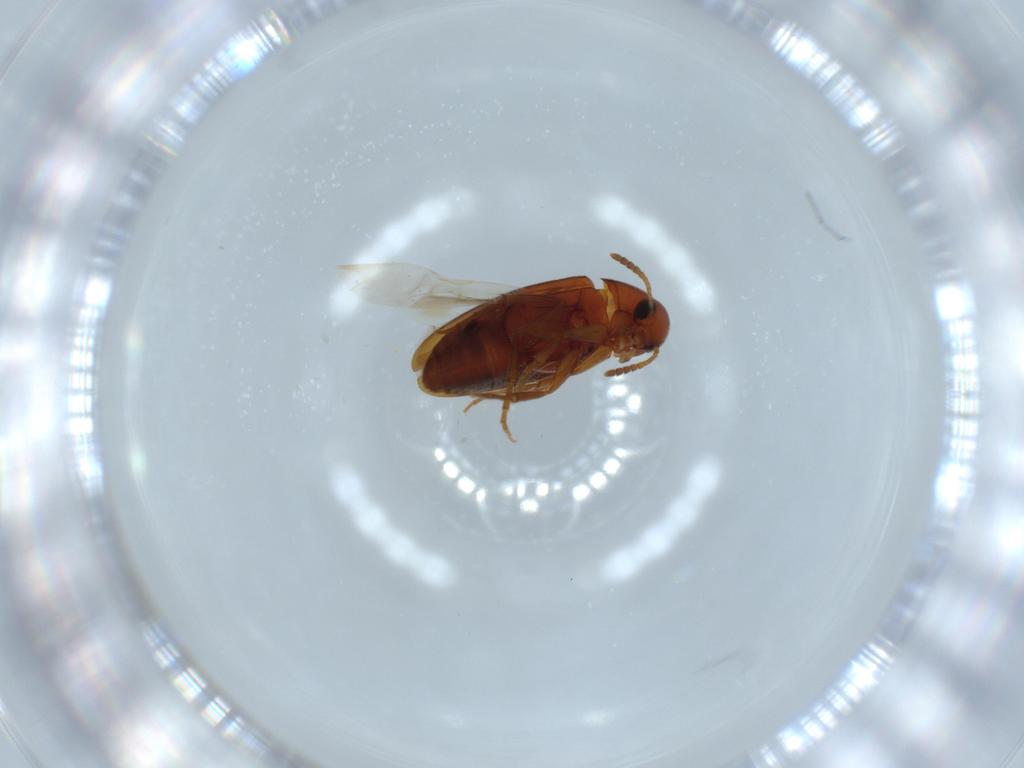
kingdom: Animalia
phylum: Arthropoda
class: Insecta
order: Coleoptera
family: Scraptiidae
